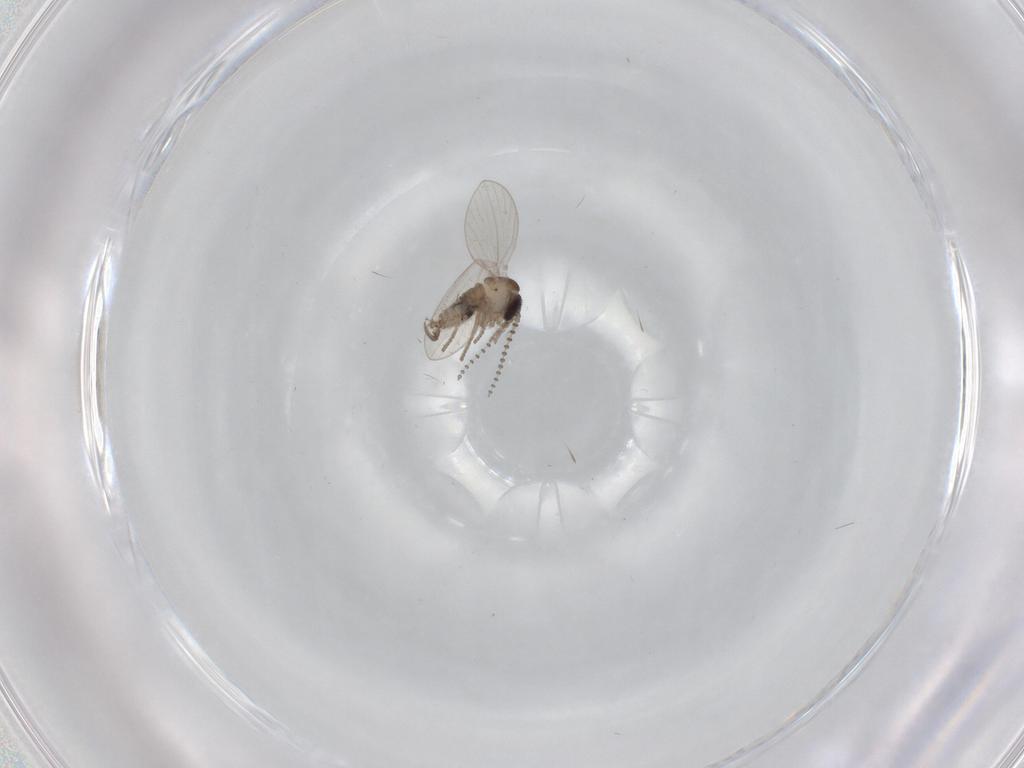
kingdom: Animalia
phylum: Arthropoda
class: Insecta
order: Diptera
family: Psychodidae
